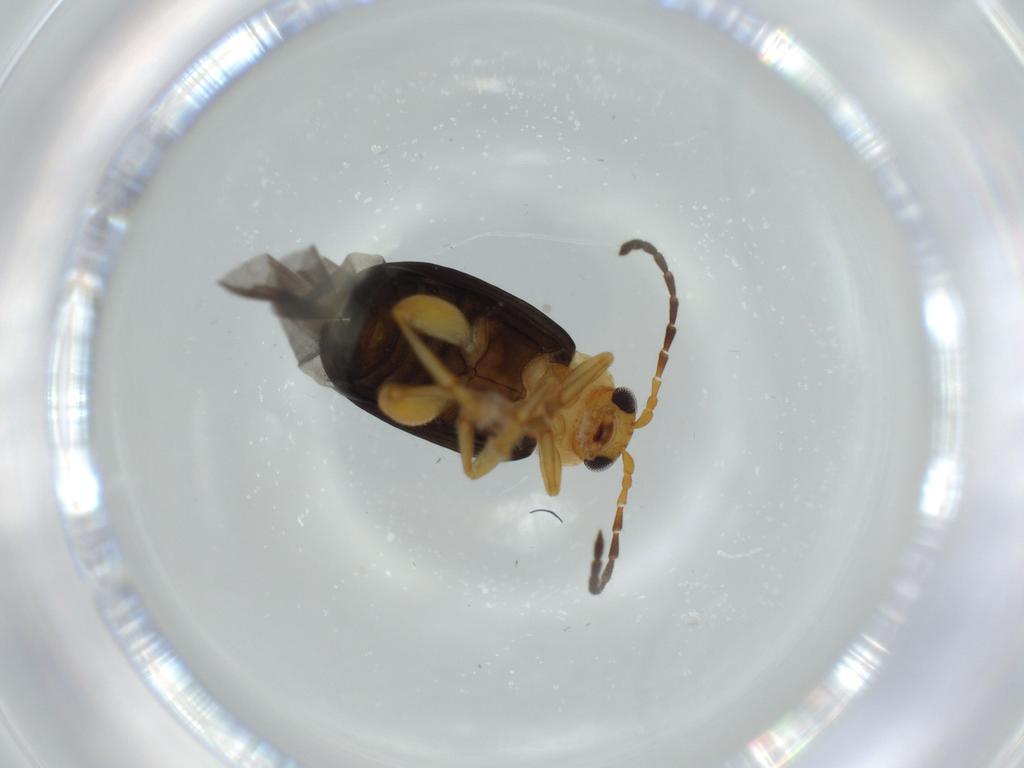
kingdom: Animalia
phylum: Arthropoda
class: Insecta
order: Coleoptera
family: Chrysomelidae
